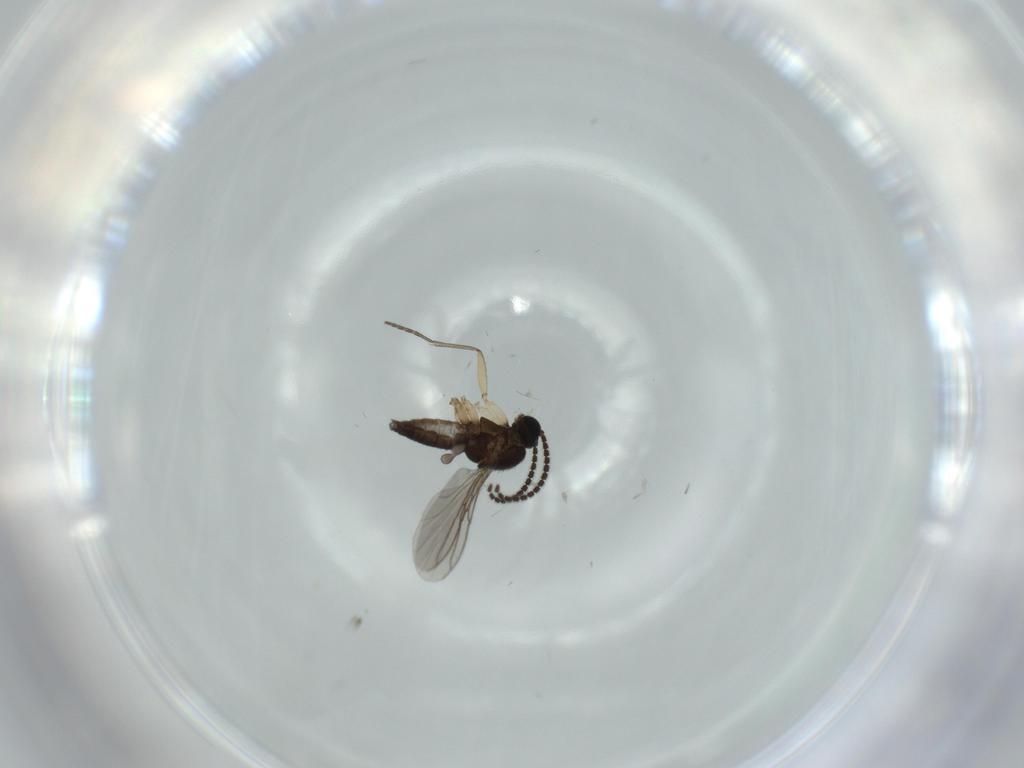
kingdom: Animalia
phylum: Arthropoda
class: Insecta
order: Diptera
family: Sciaridae
